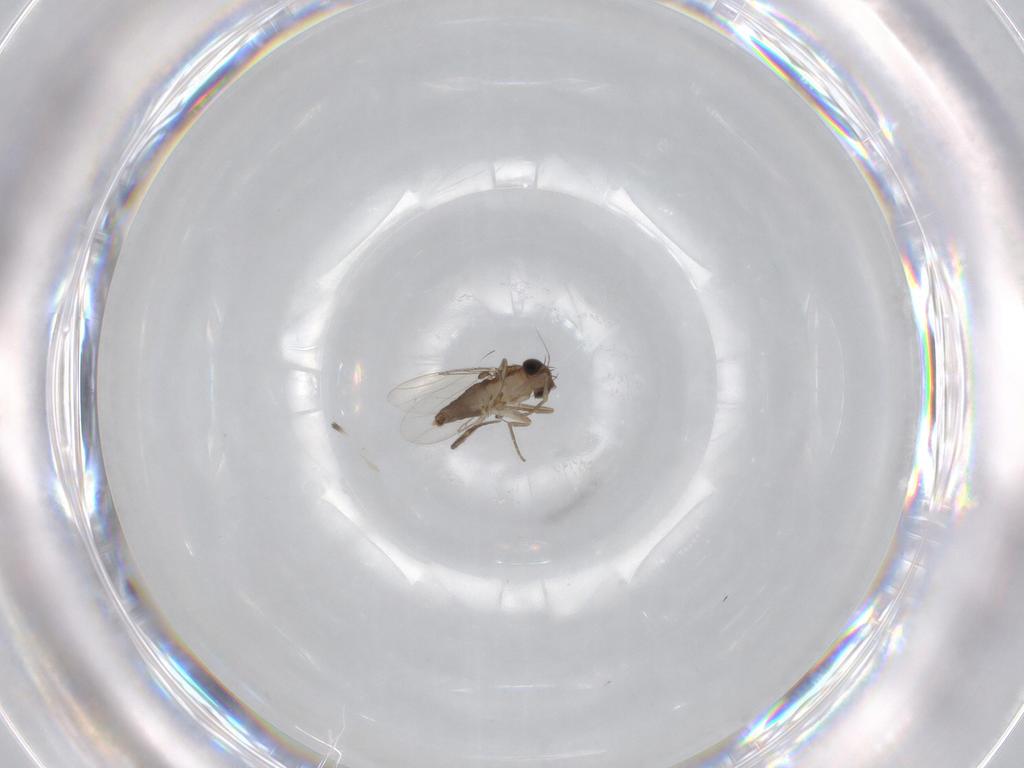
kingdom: Animalia
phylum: Arthropoda
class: Insecta
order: Diptera
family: Phoridae
